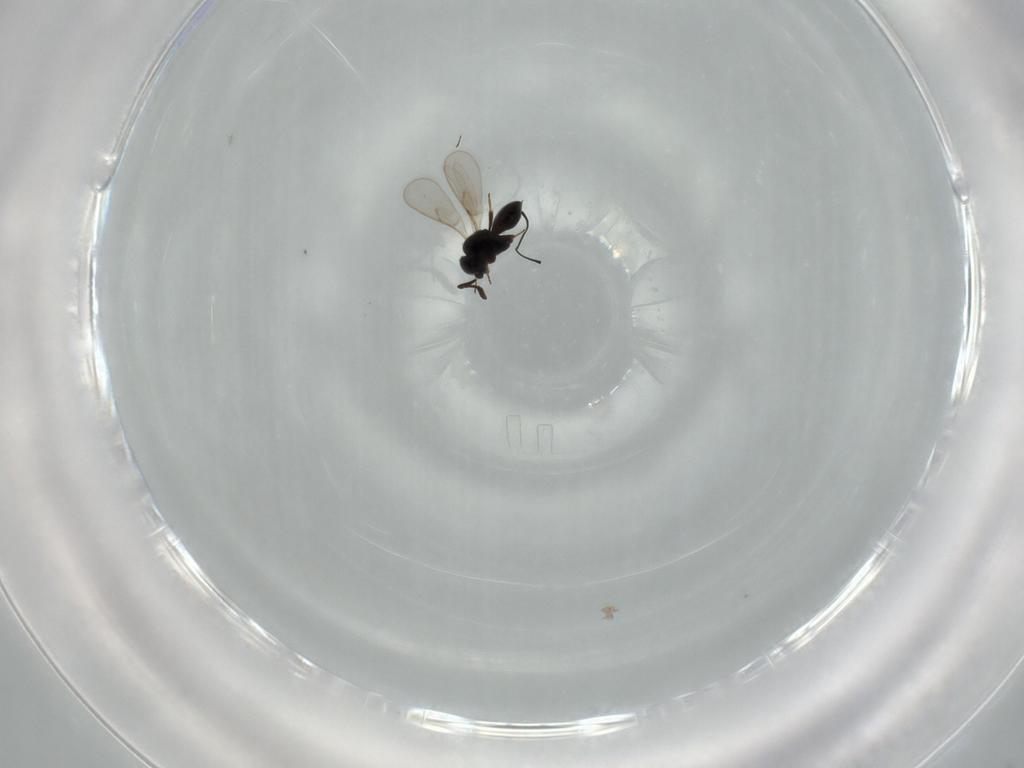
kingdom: Animalia
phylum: Arthropoda
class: Insecta
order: Hymenoptera
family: Scelionidae
